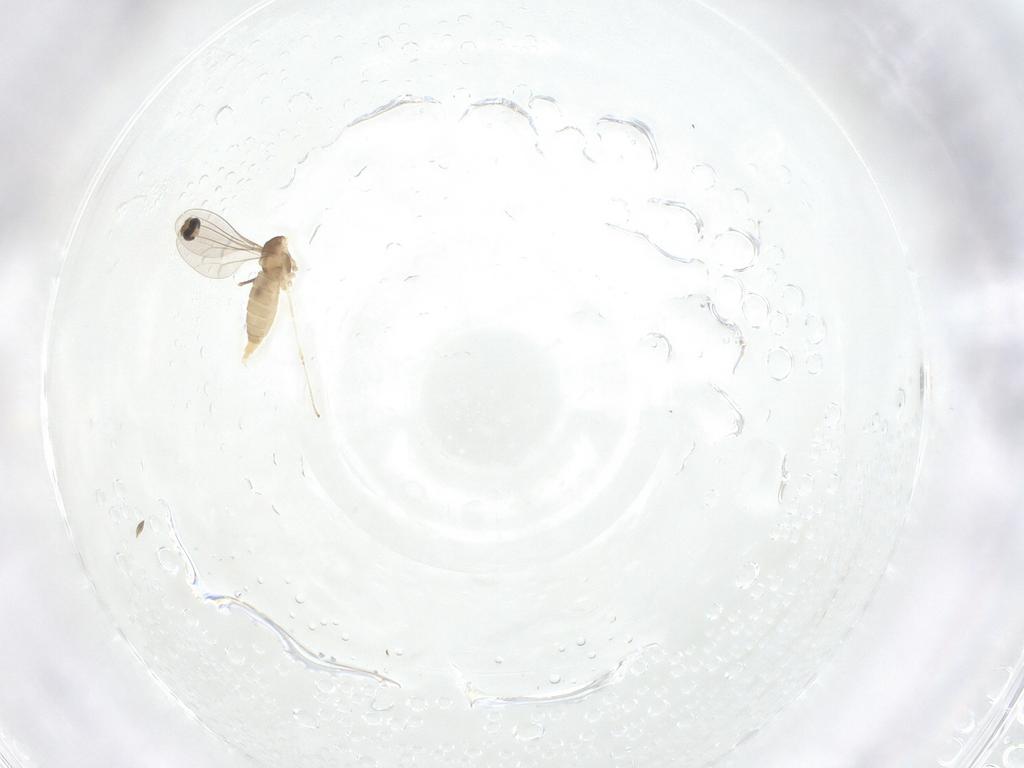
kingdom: Animalia
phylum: Arthropoda
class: Insecta
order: Diptera
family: Cecidomyiidae
